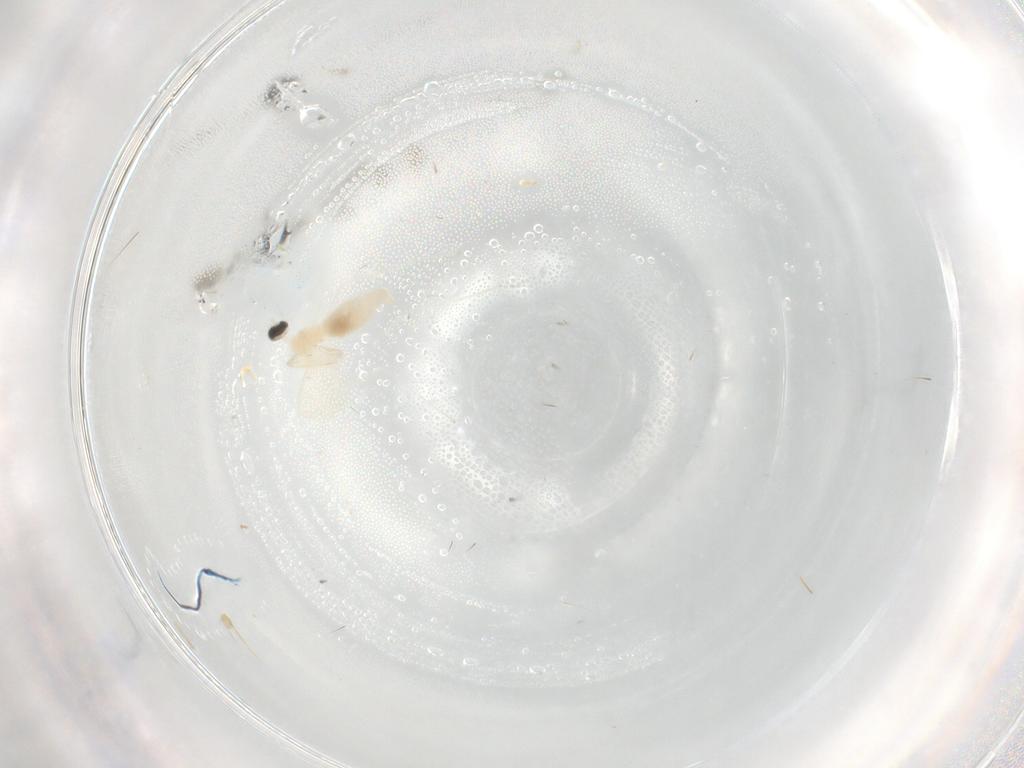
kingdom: Animalia
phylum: Arthropoda
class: Insecta
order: Diptera
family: Cecidomyiidae
